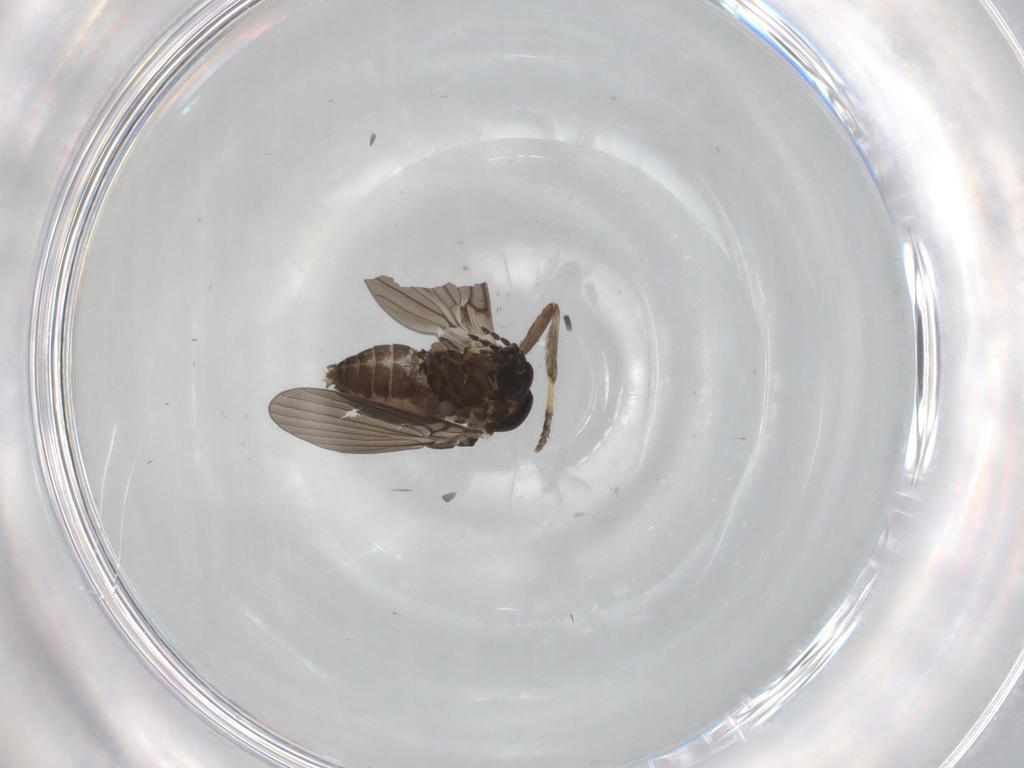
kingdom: Animalia
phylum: Arthropoda
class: Insecta
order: Diptera
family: Psychodidae
